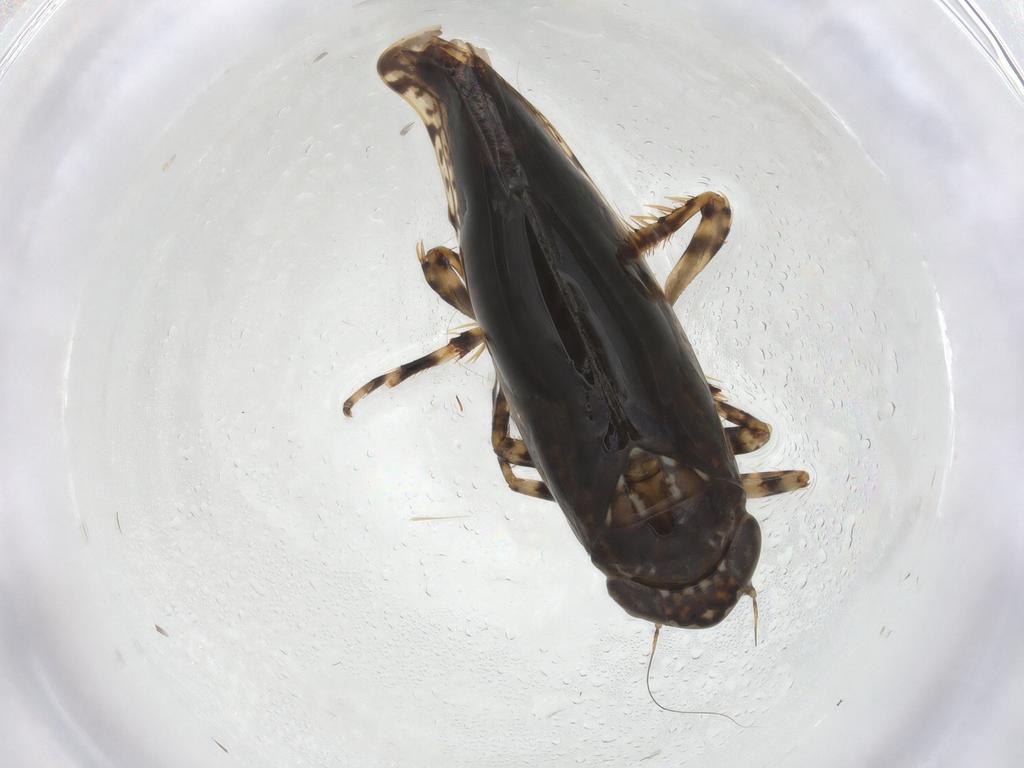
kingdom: Animalia
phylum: Arthropoda
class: Insecta
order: Hemiptera
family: Cicadellidae
